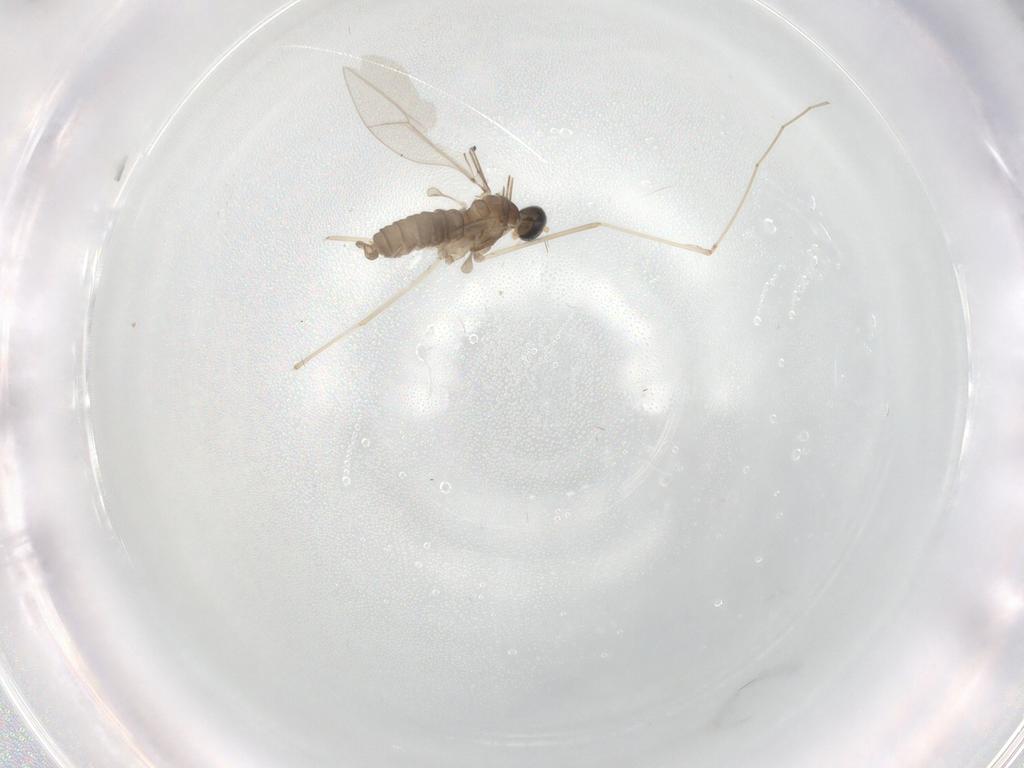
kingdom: Animalia
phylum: Arthropoda
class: Insecta
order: Diptera
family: Cecidomyiidae
